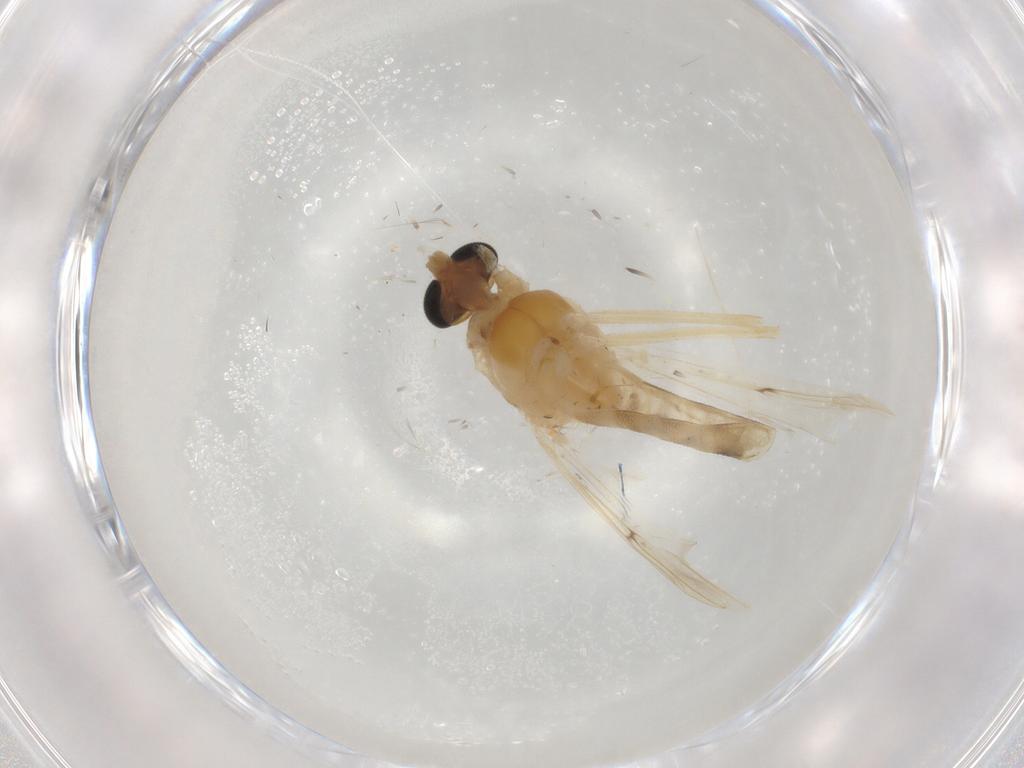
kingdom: Animalia
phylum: Arthropoda
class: Insecta
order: Diptera
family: Dolichopodidae
